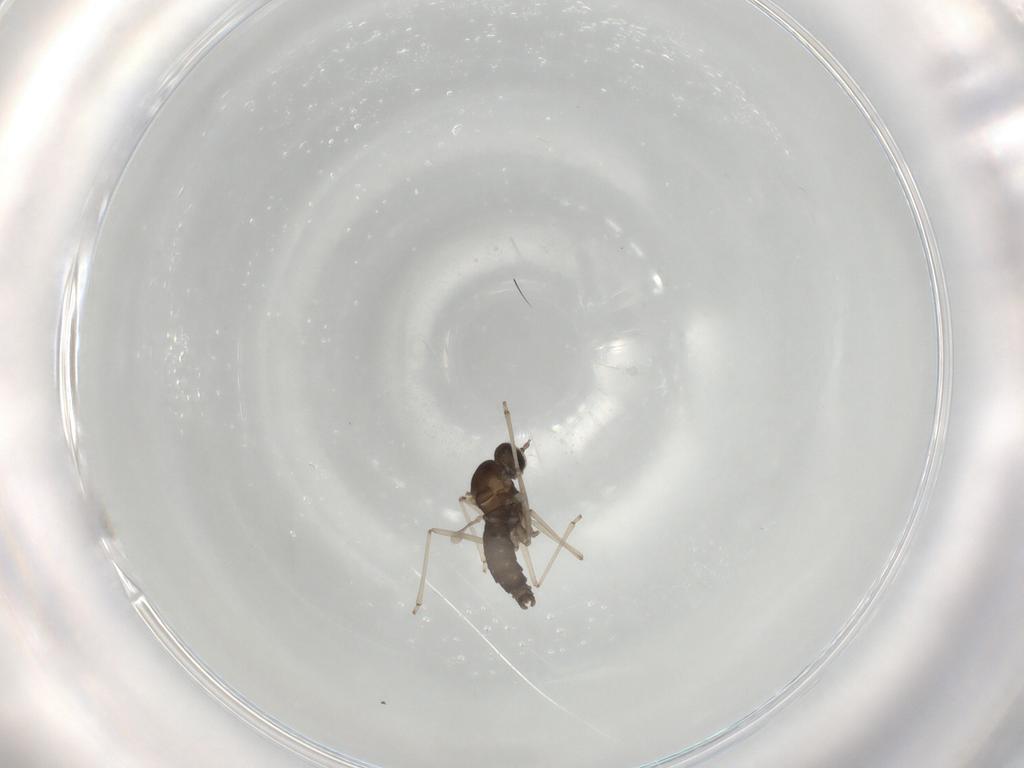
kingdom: Animalia
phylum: Arthropoda
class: Insecta
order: Diptera
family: Cecidomyiidae
